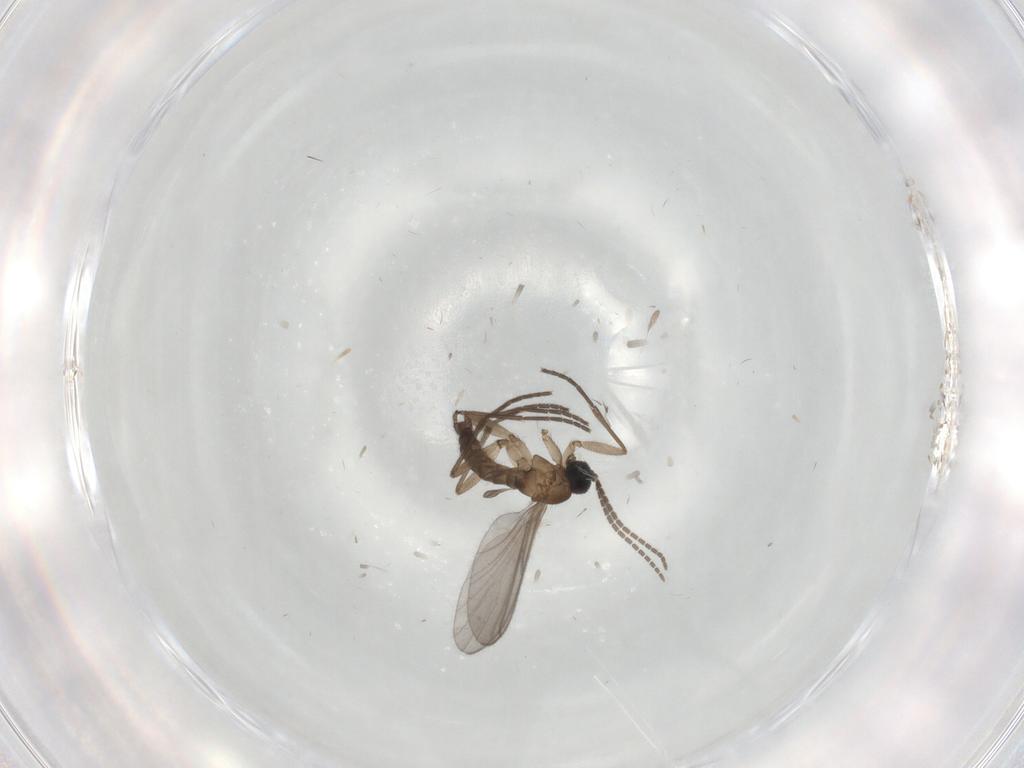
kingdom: Animalia
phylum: Arthropoda
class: Insecta
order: Diptera
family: Sciaridae
